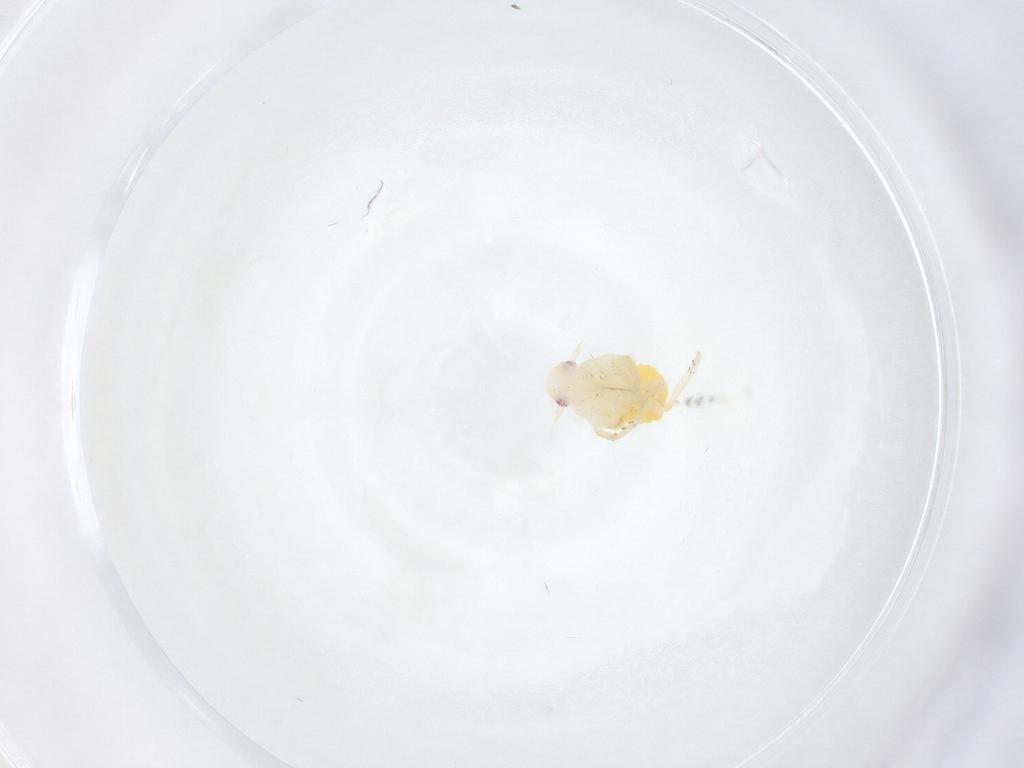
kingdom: Animalia
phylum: Arthropoda
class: Insecta
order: Hemiptera
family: Fulgoroidea_incertae_sedis
